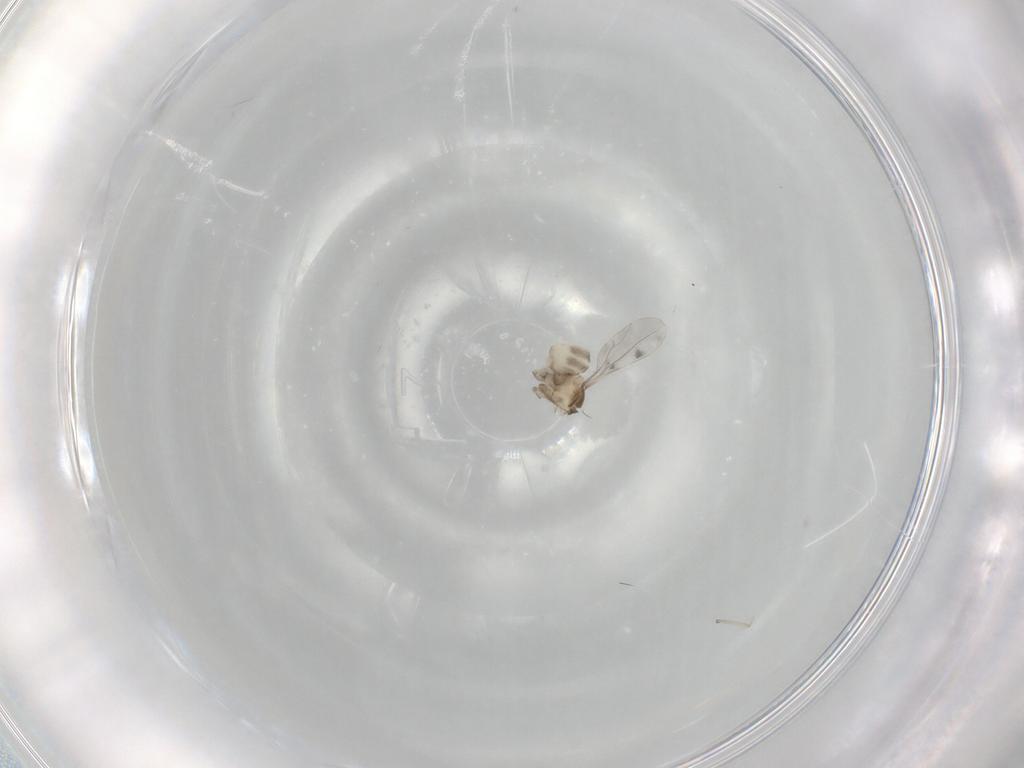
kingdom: Animalia
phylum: Arthropoda
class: Insecta
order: Diptera
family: Cecidomyiidae
